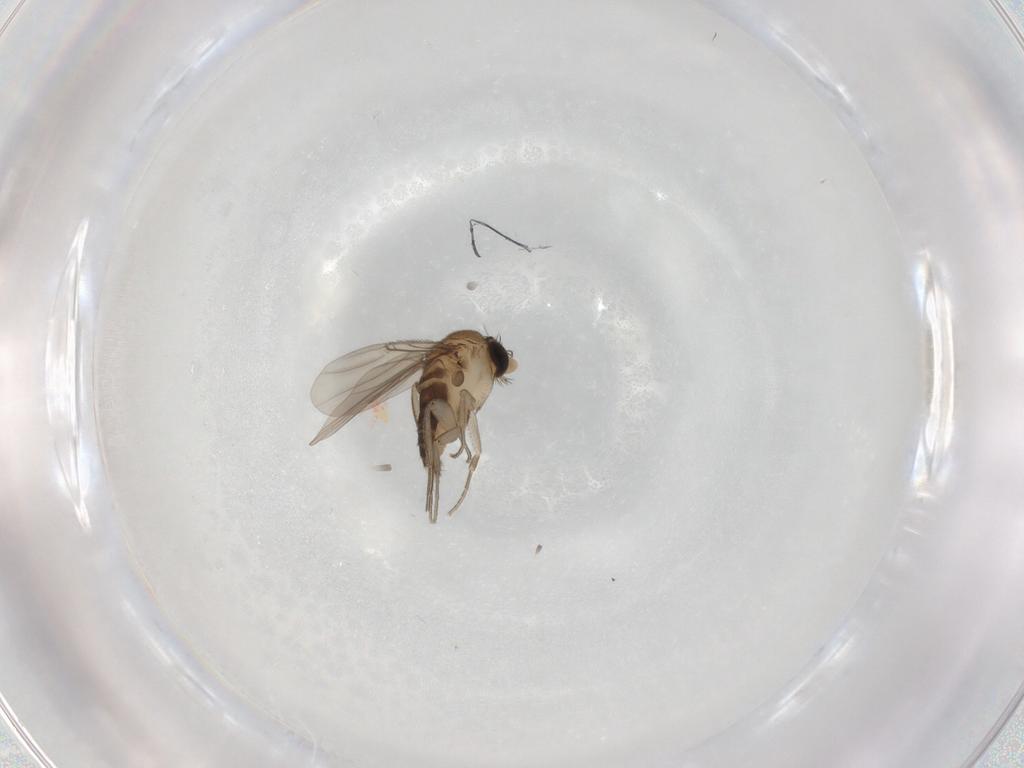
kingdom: Animalia
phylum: Arthropoda
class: Insecta
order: Diptera
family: Phoridae
